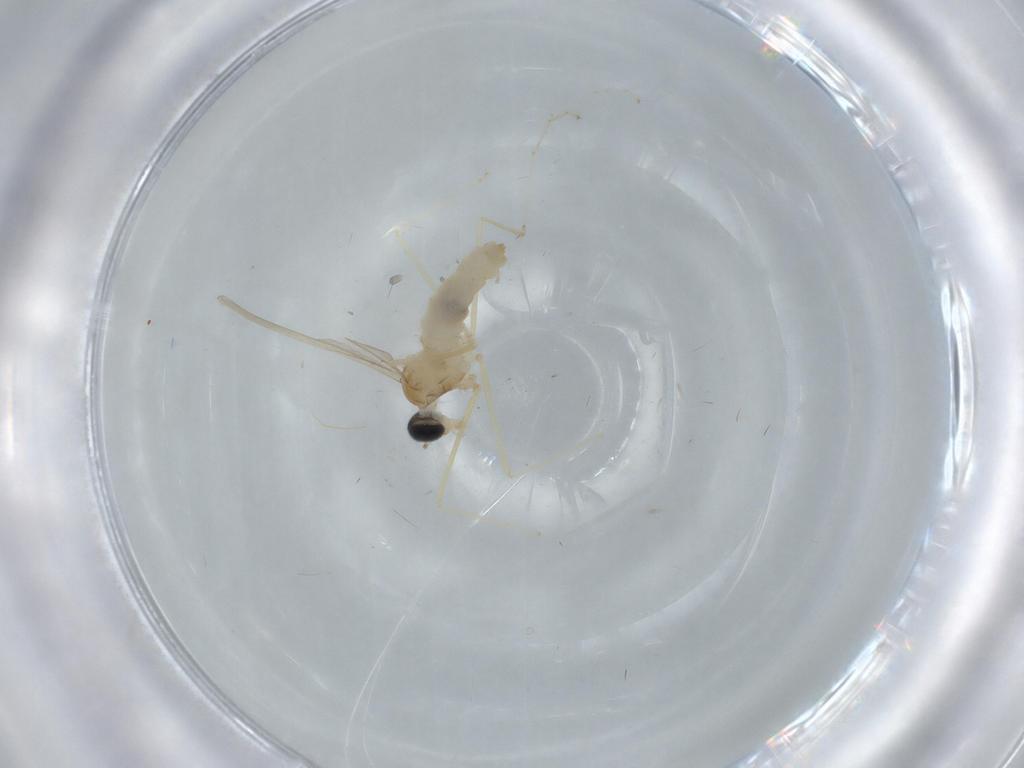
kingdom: Animalia
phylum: Arthropoda
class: Insecta
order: Diptera
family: Cecidomyiidae
